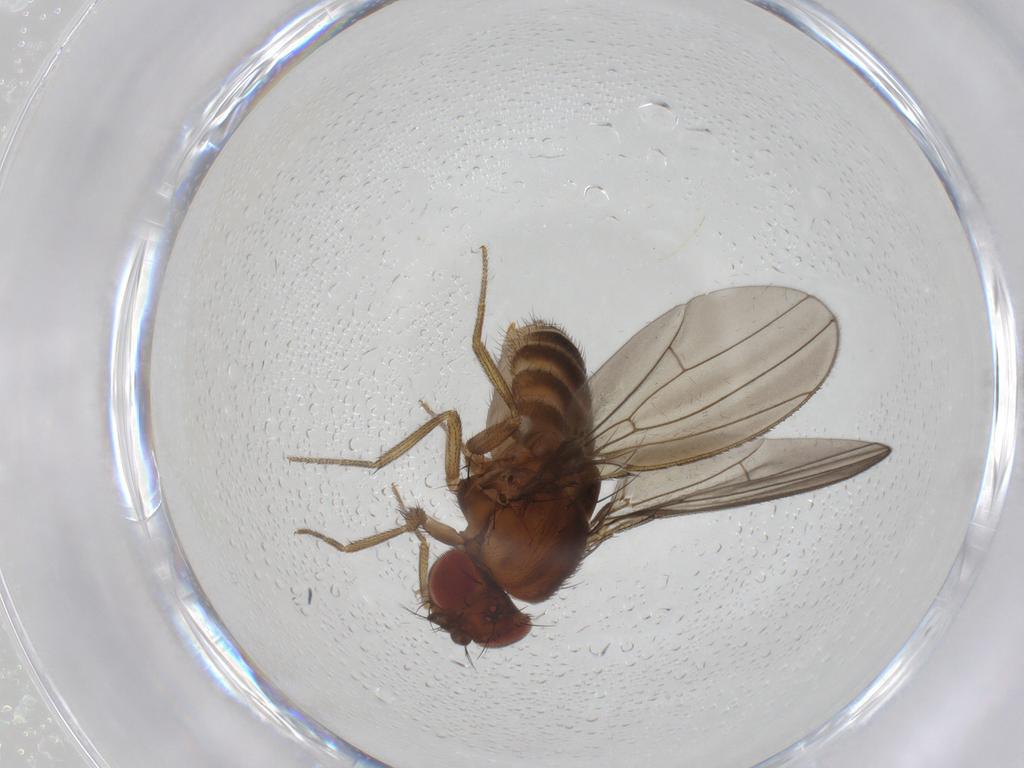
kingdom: Animalia
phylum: Arthropoda
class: Insecta
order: Diptera
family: Drosophilidae
